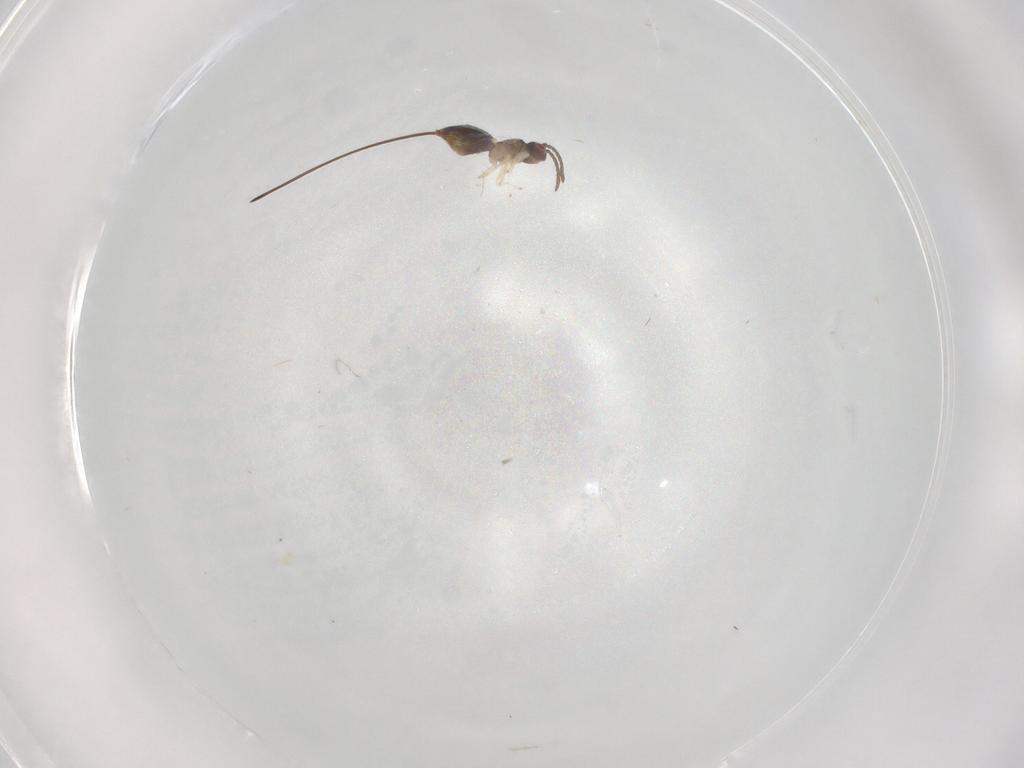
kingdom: Animalia
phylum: Arthropoda
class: Insecta
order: Hymenoptera
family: Pteromalidae
